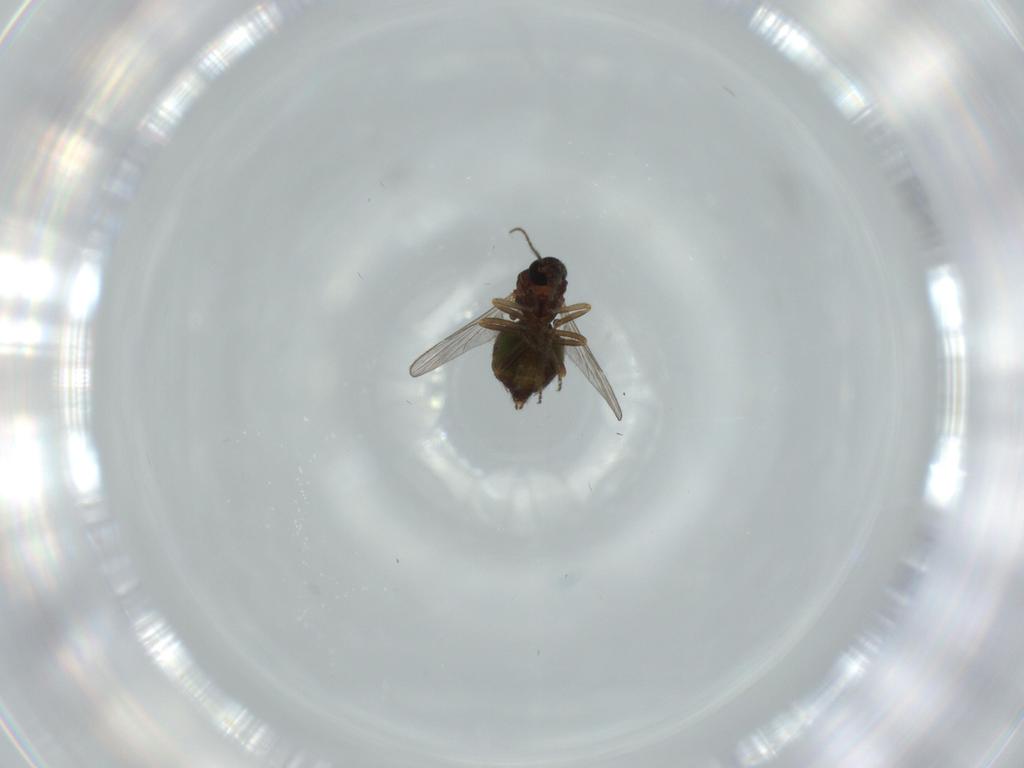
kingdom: Animalia
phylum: Arthropoda
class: Insecta
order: Diptera
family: Ceratopogonidae
